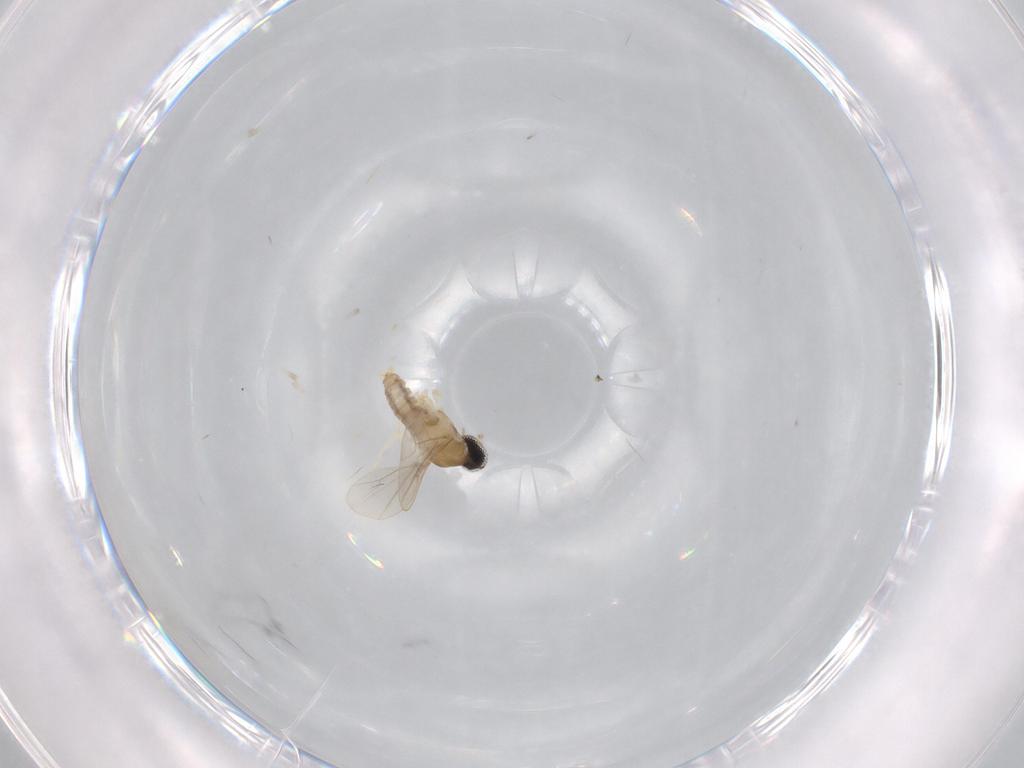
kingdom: Animalia
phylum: Arthropoda
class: Insecta
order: Diptera
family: Cecidomyiidae
